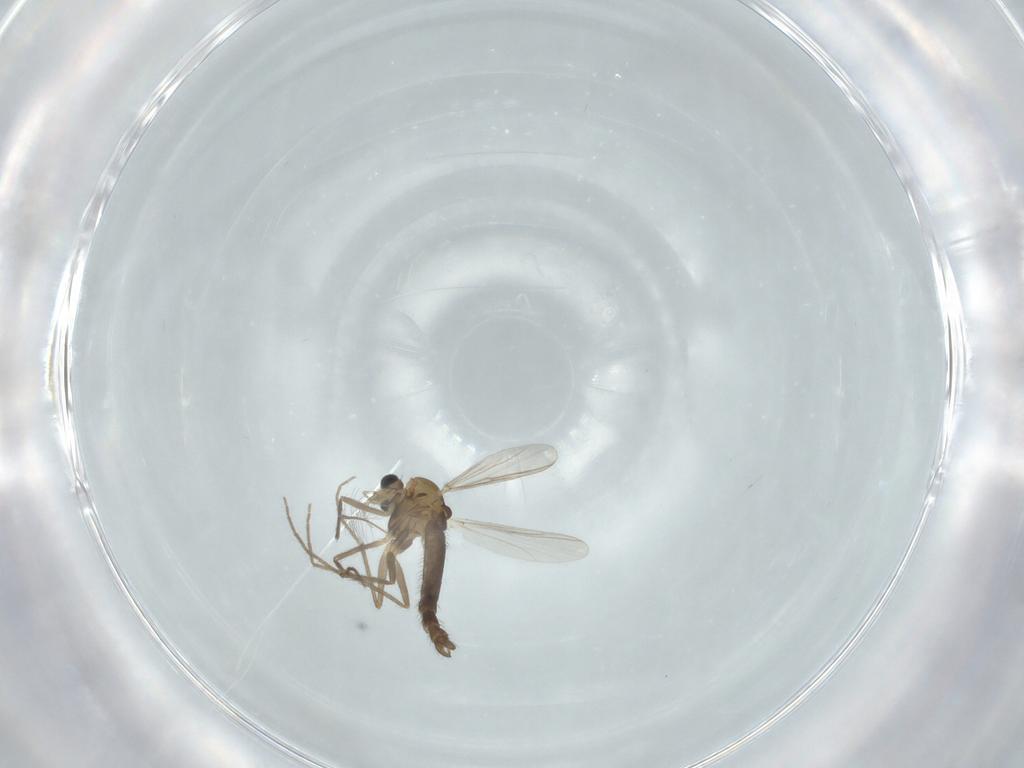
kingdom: Animalia
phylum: Arthropoda
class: Insecta
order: Diptera
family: Chironomidae
